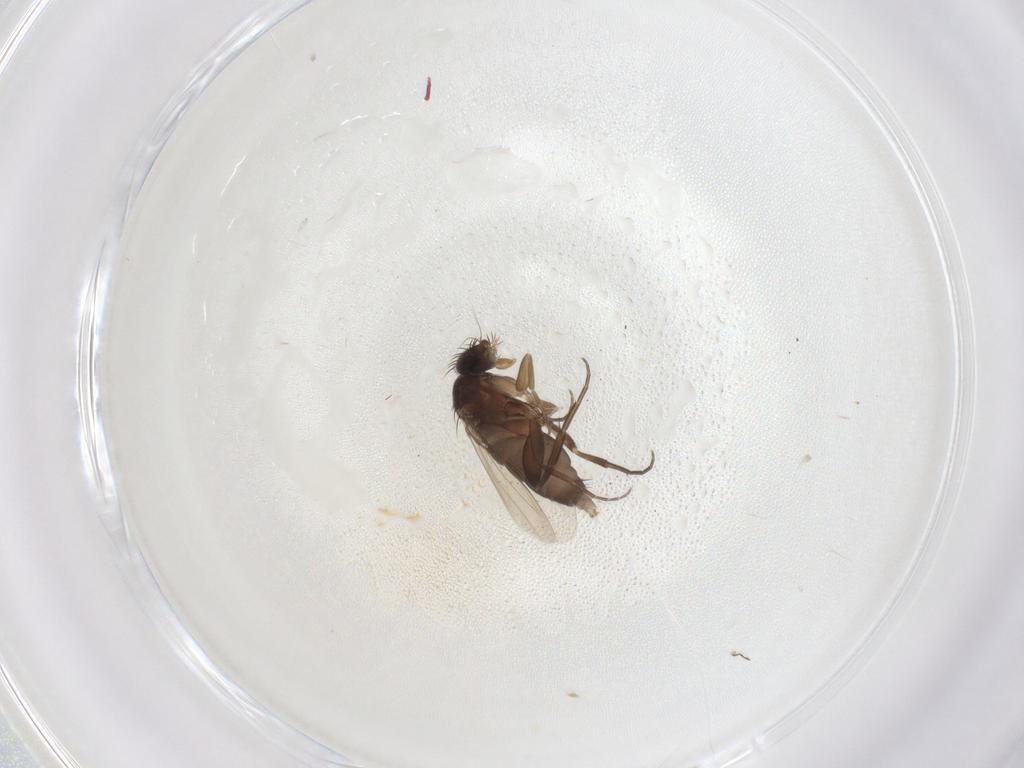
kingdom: Animalia
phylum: Arthropoda
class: Insecta
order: Diptera
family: Phoridae
